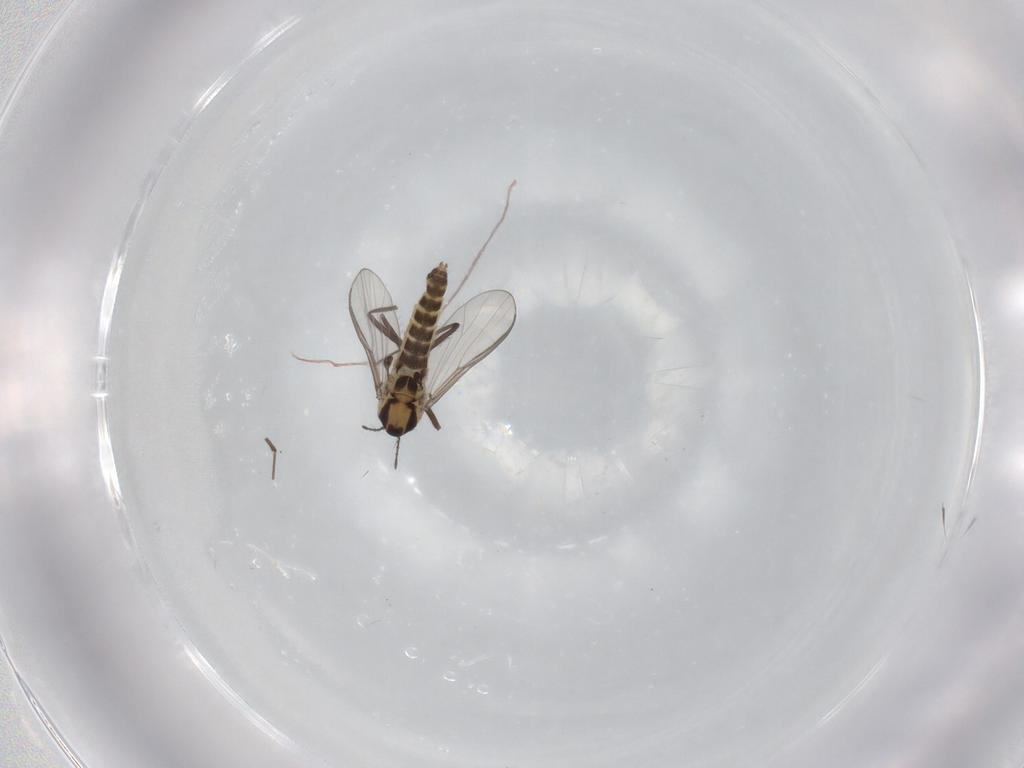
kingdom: Animalia
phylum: Arthropoda
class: Insecta
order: Diptera
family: Chironomidae
